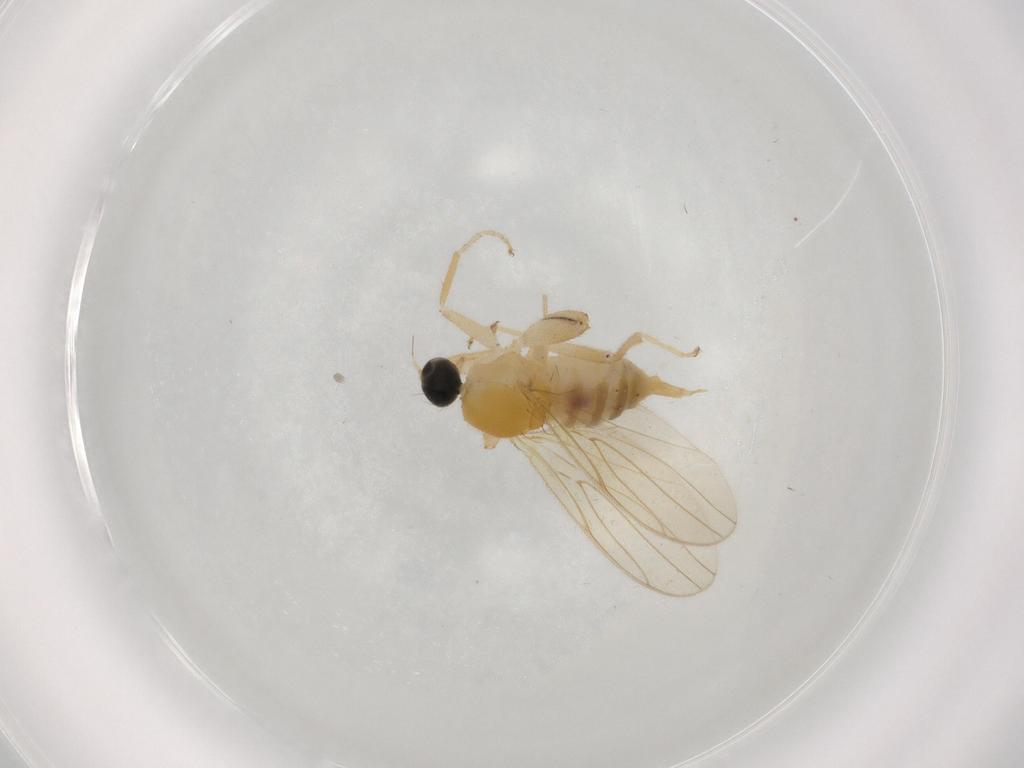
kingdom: Animalia
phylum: Arthropoda
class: Insecta
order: Diptera
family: Hybotidae
